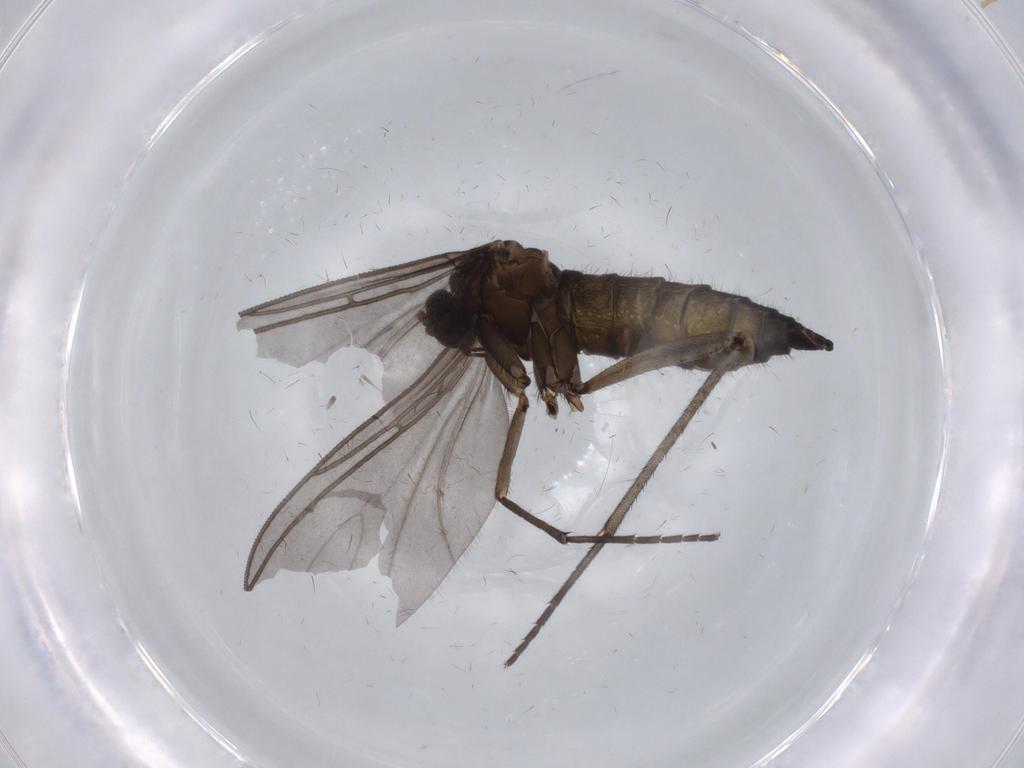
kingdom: Animalia
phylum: Arthropoda
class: Insecta
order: Diptera
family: Sciaridae
